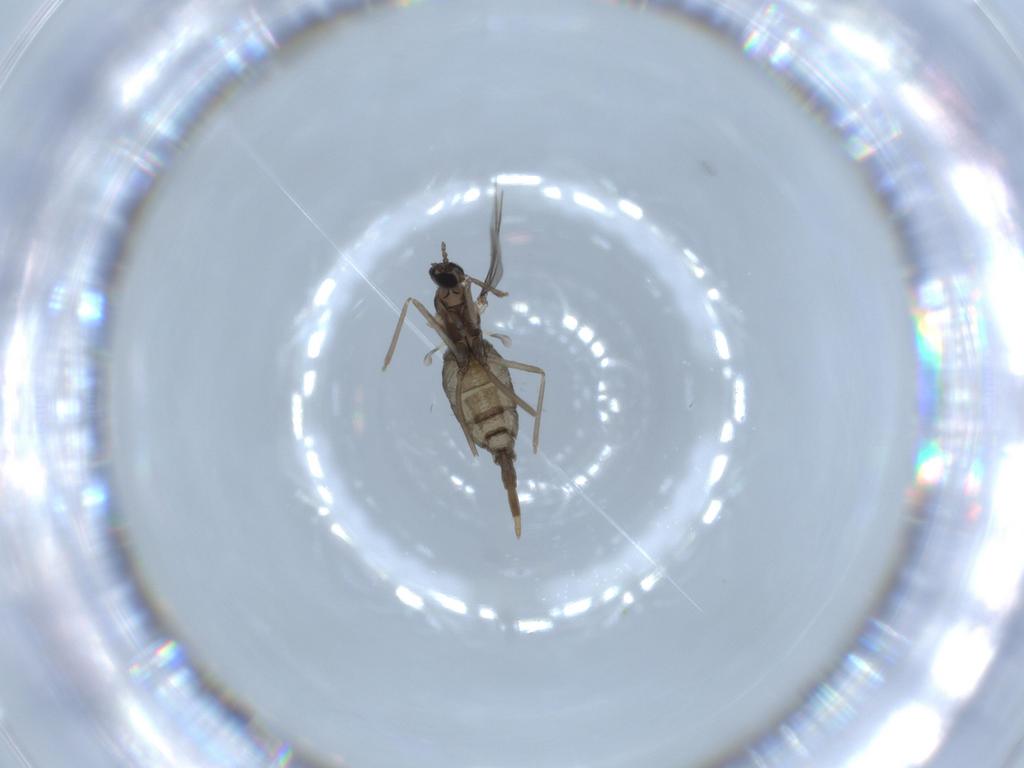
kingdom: Animalia
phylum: Arthropoda
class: Insecta
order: Diptera
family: Cecidomyiidae
